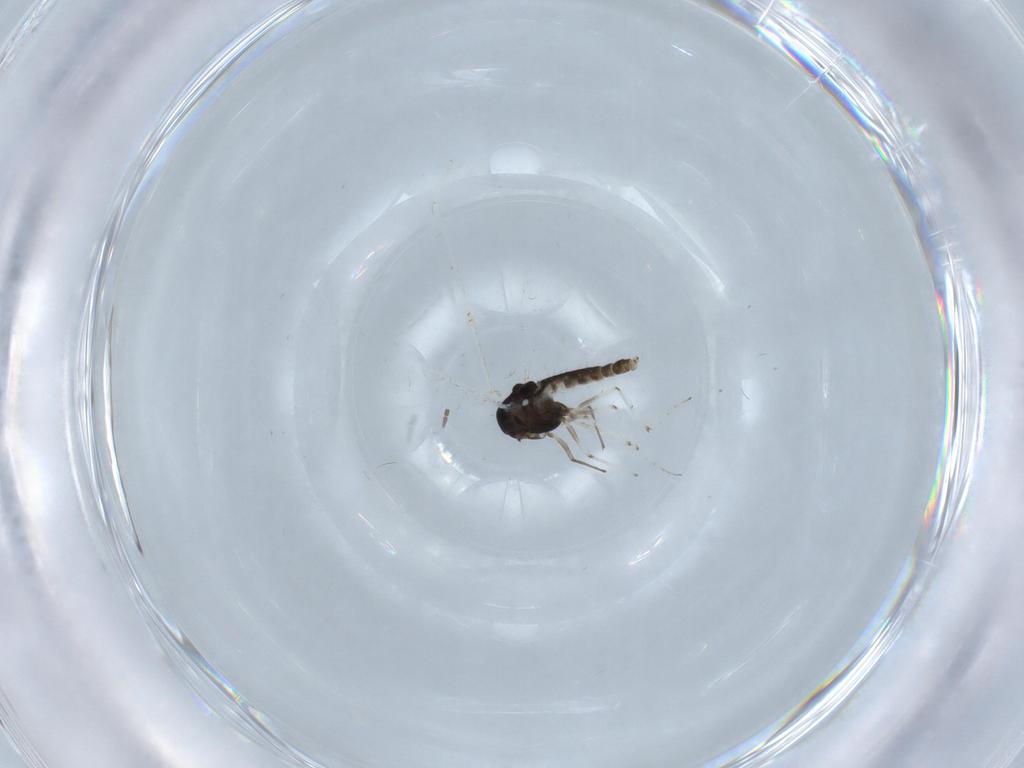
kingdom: Animalia
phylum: Arthropoda
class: Insecta
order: Diptera
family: Chironomidae
